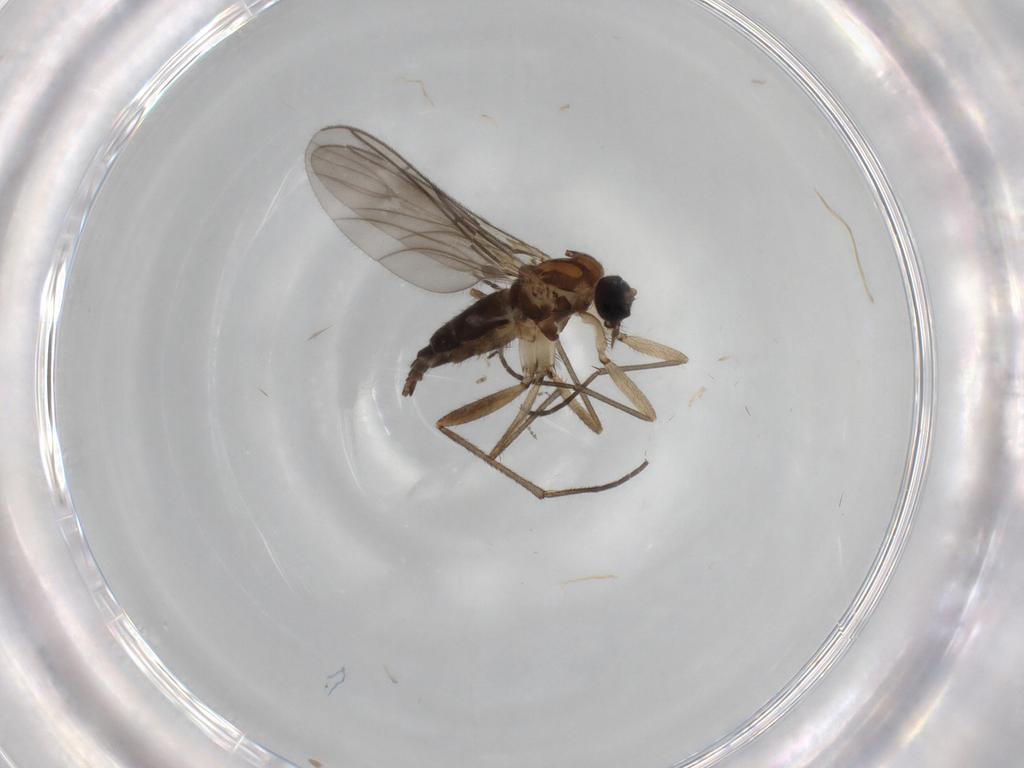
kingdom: Animalia
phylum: Arthropoda
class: Insecta
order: Diptera
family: Sciaridae
